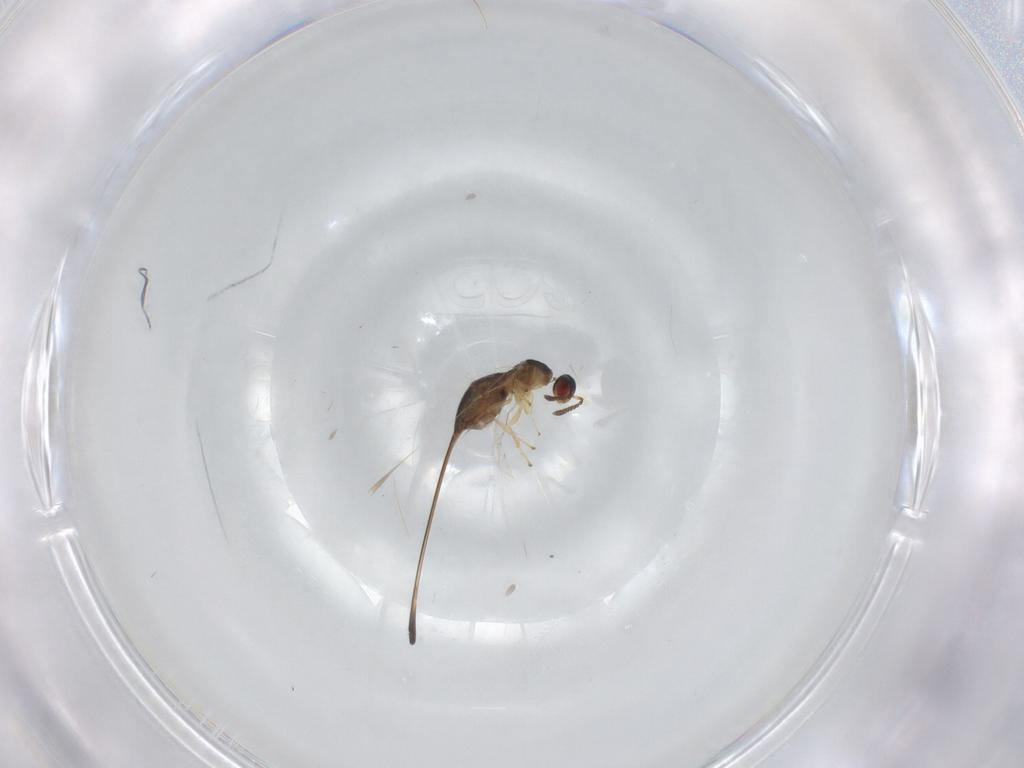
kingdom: Animalia
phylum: Arthropoda
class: Insecta
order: Hymenoptera
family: Pteromalidae
